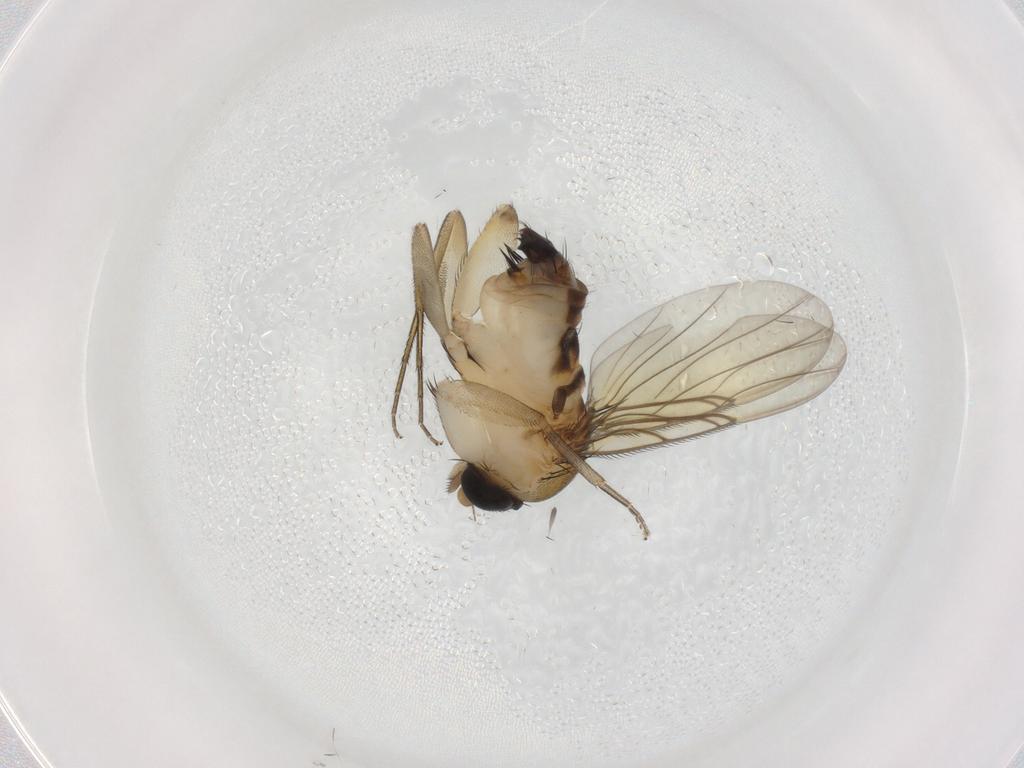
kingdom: Animalia
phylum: Arthropoda
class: Insecta
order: Diptera
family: Phoridae
